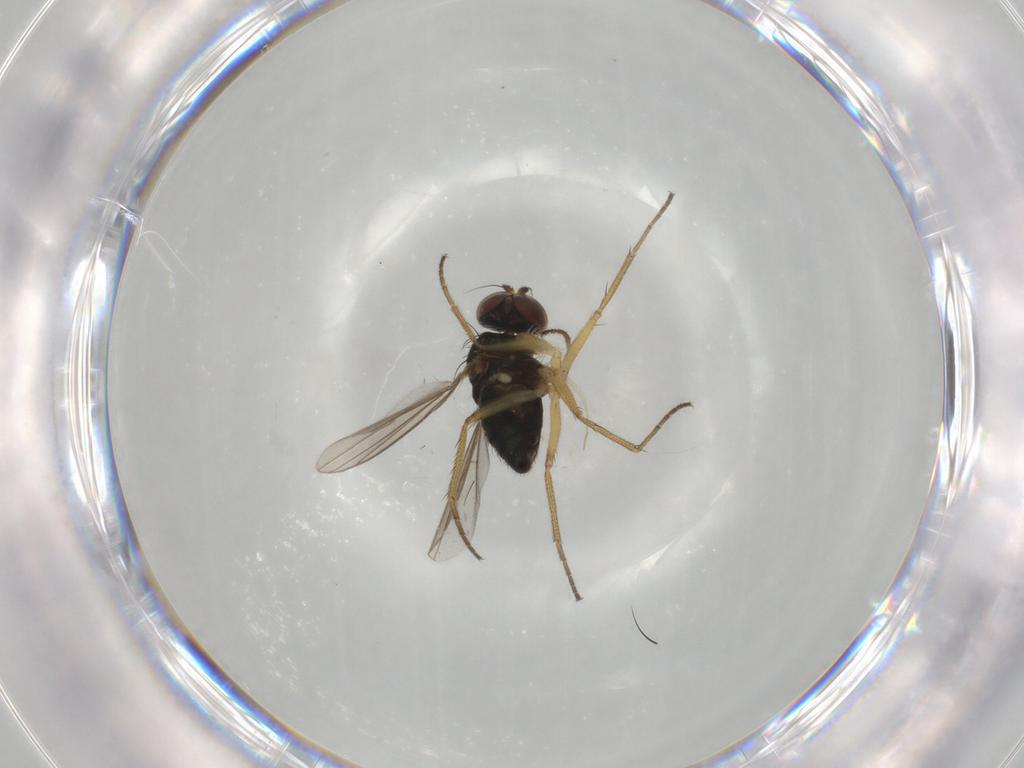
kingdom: Animalia
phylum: Arthropoda
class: Insecta
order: Diptera
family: Dolichopodidae
